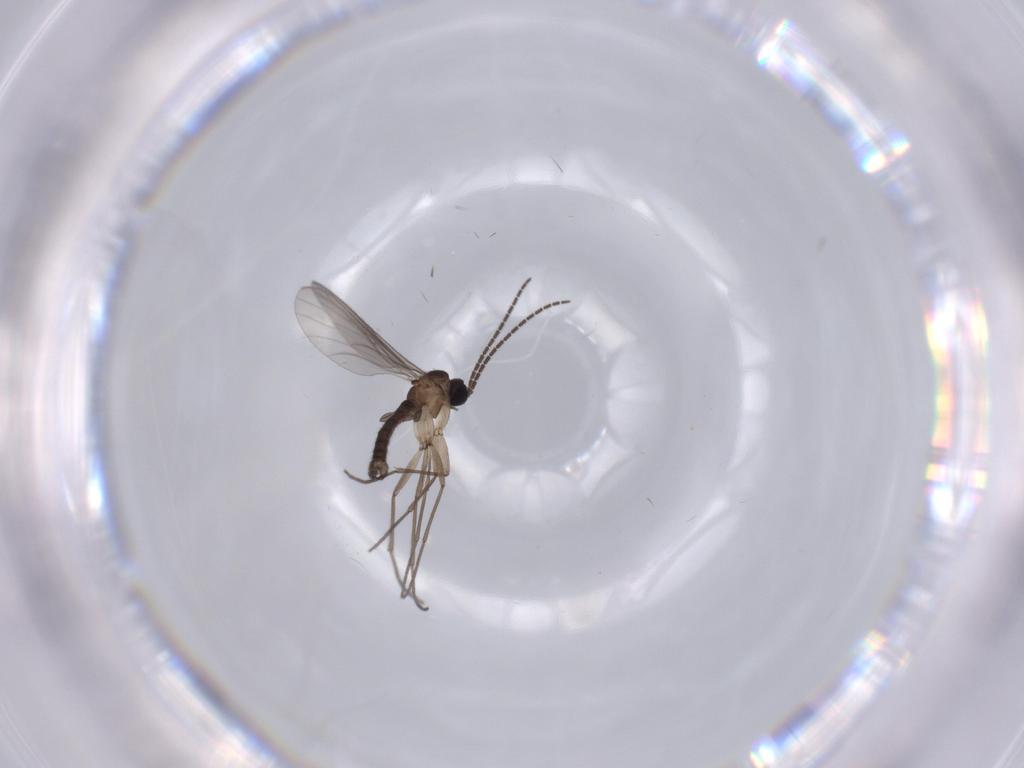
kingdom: Animalia
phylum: Arthropoda
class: Insecta
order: Diptera
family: Sciaridae
